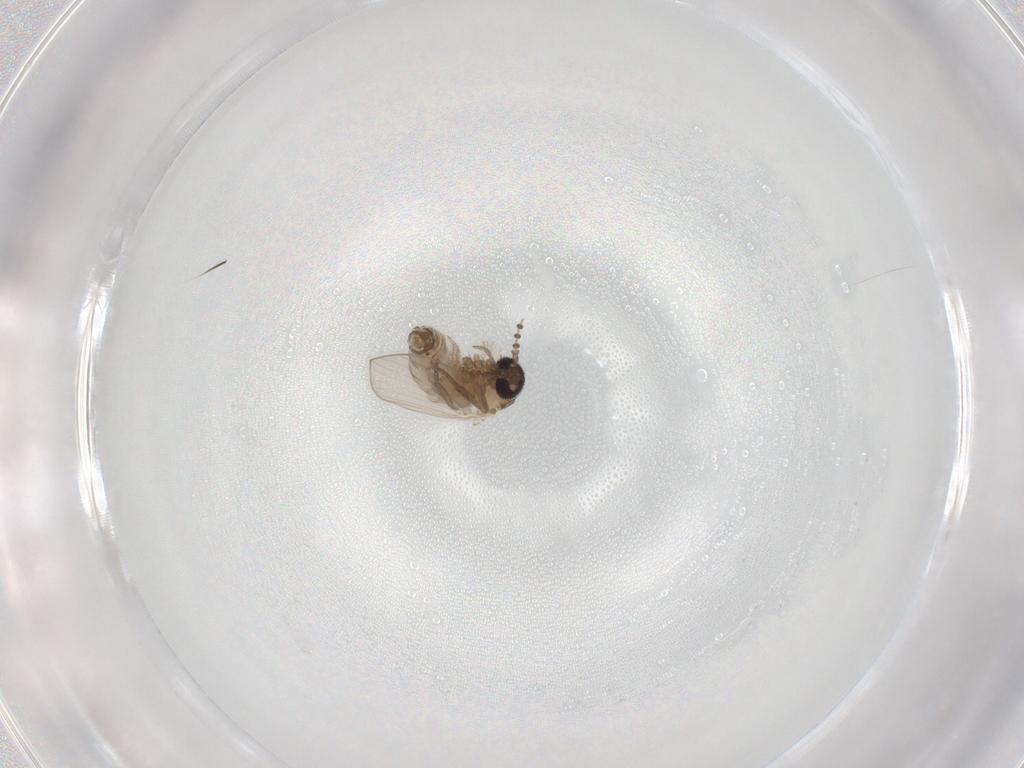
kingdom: Animalia
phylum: Arthropoda
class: Insecta
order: Diptera
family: Psychodidae
